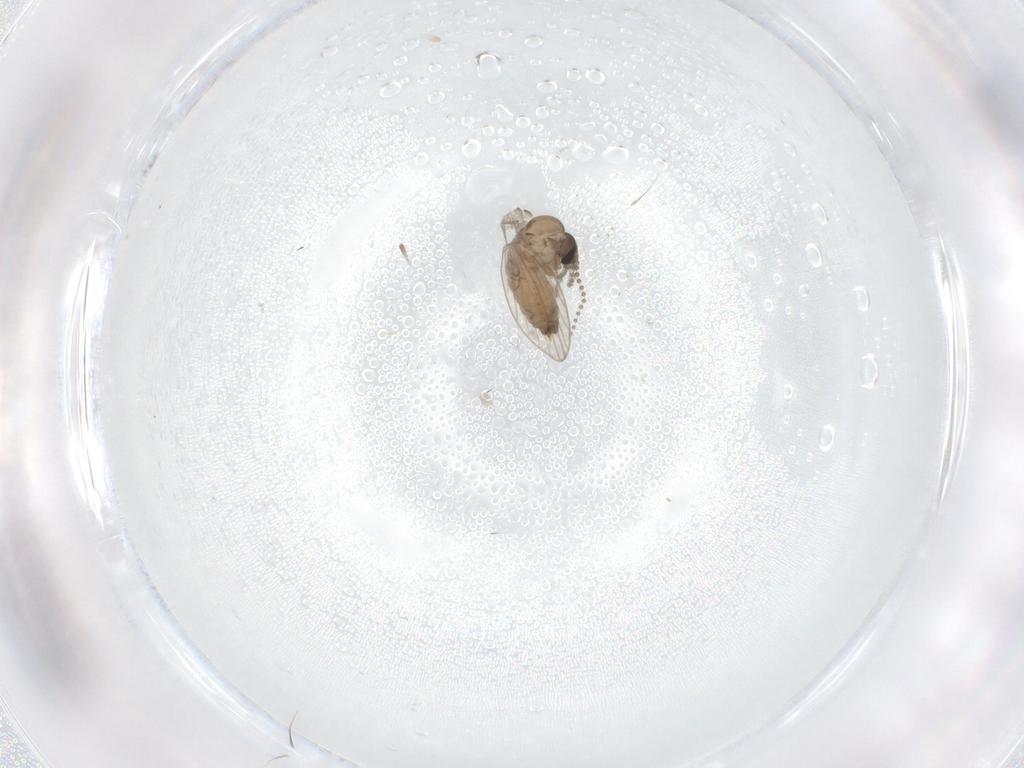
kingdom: Animalia
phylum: Arthropoda
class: Insecta
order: Diptera
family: Psychodidae
